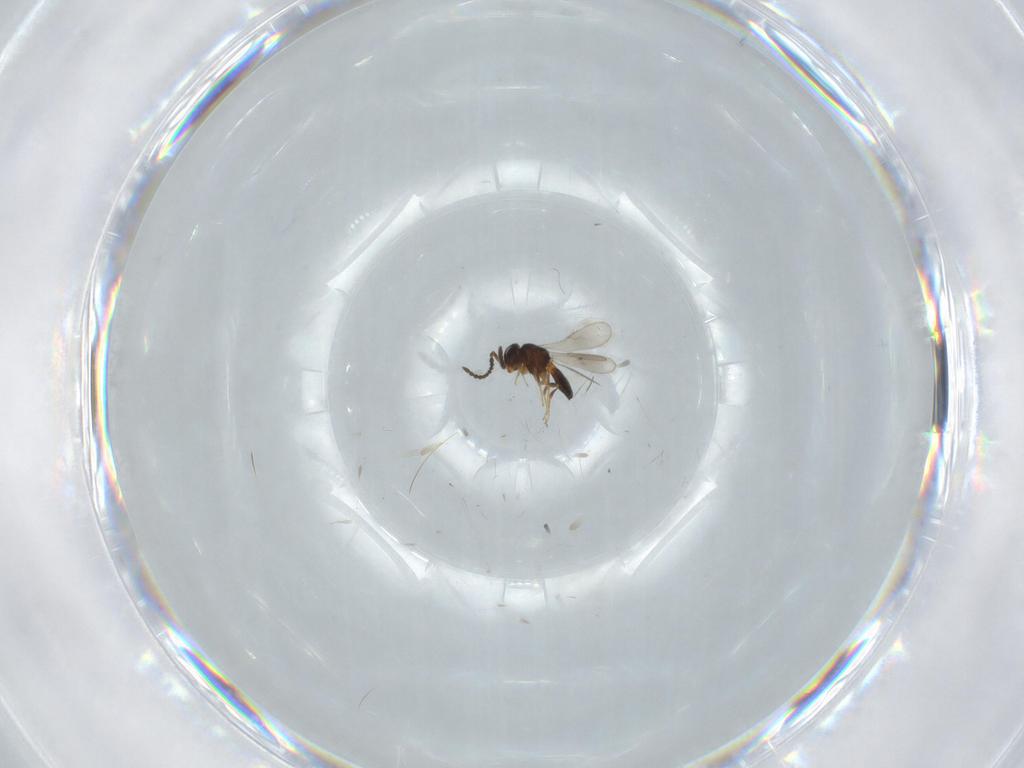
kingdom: Animalia
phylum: Arthropoda
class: Insecta
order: Hymenoptera
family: Scelionidae
